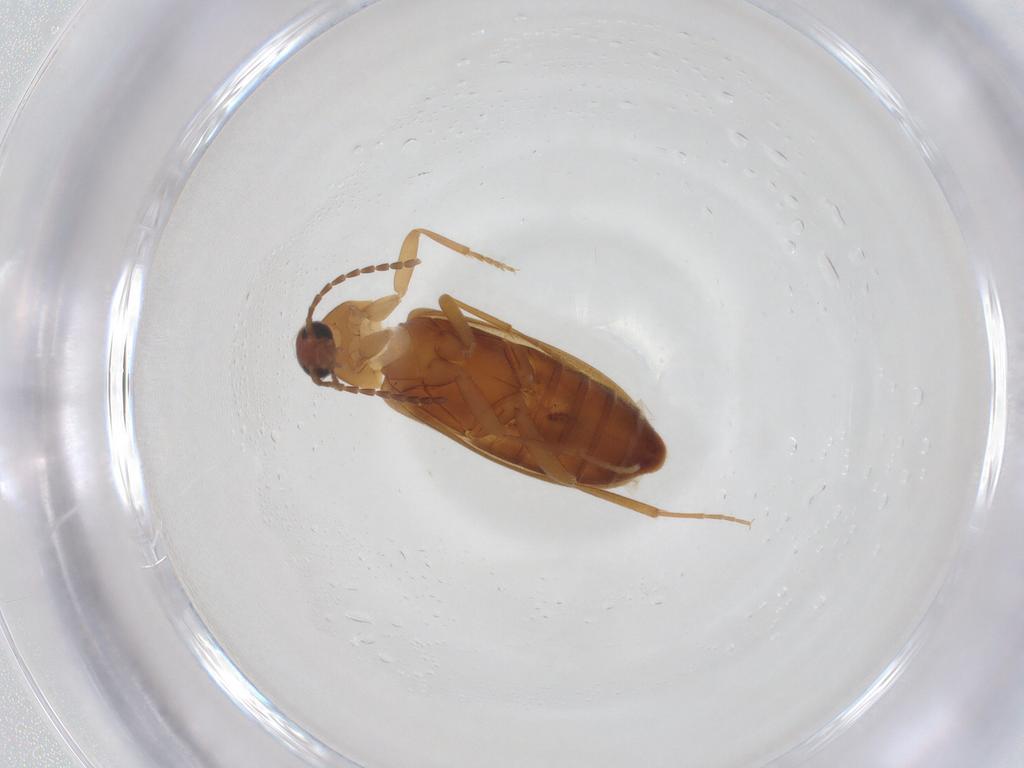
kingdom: Animalia
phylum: Arthropoda
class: Insecta
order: Coleoptera
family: Scraptiidae
